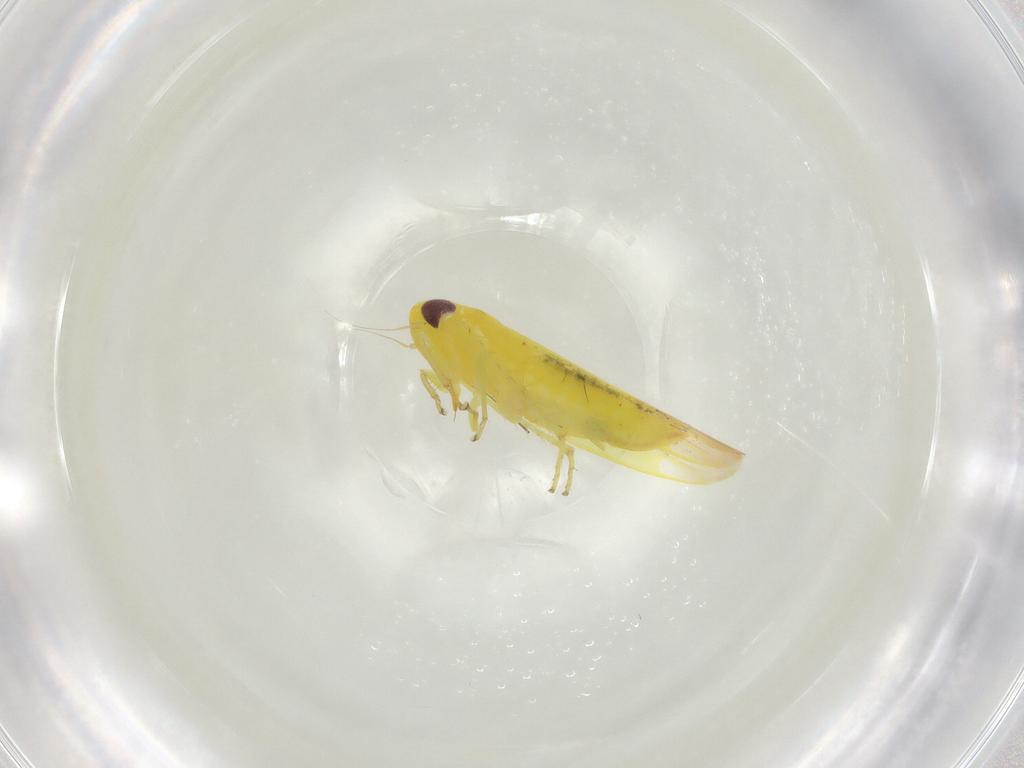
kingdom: Animalia
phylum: Arthropoda
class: Insecta
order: Hemiptera
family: Cicadellidae
